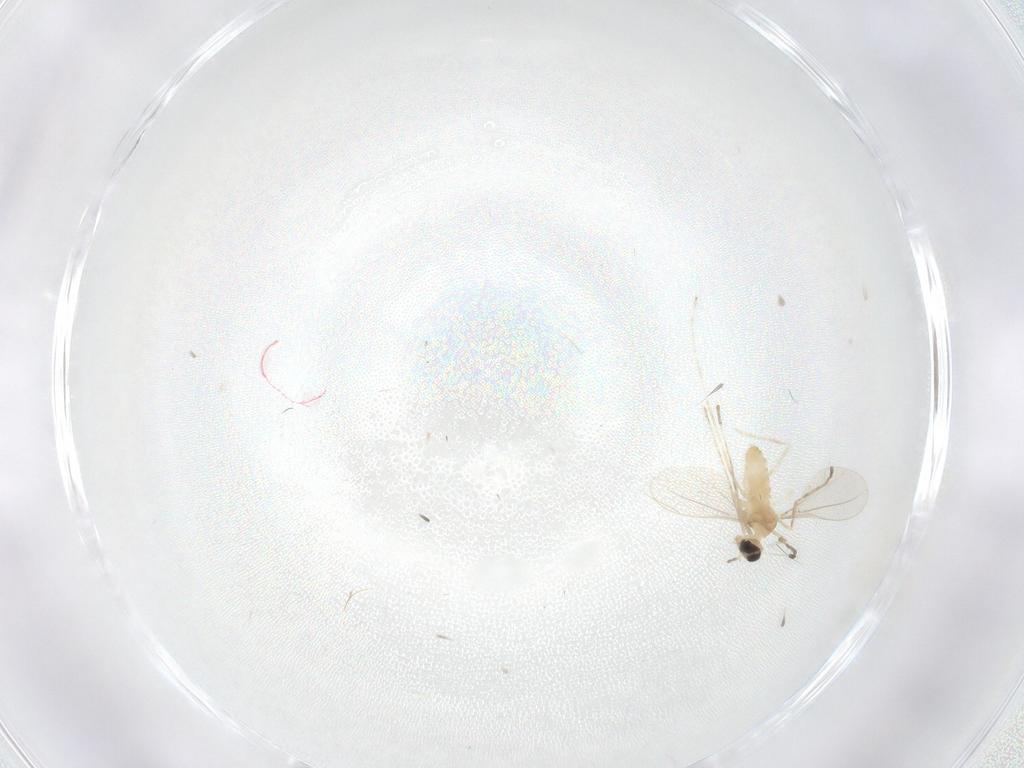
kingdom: Animalia
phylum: Arthropoda
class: Insecta
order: Diptera
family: Cecidomyiidae
